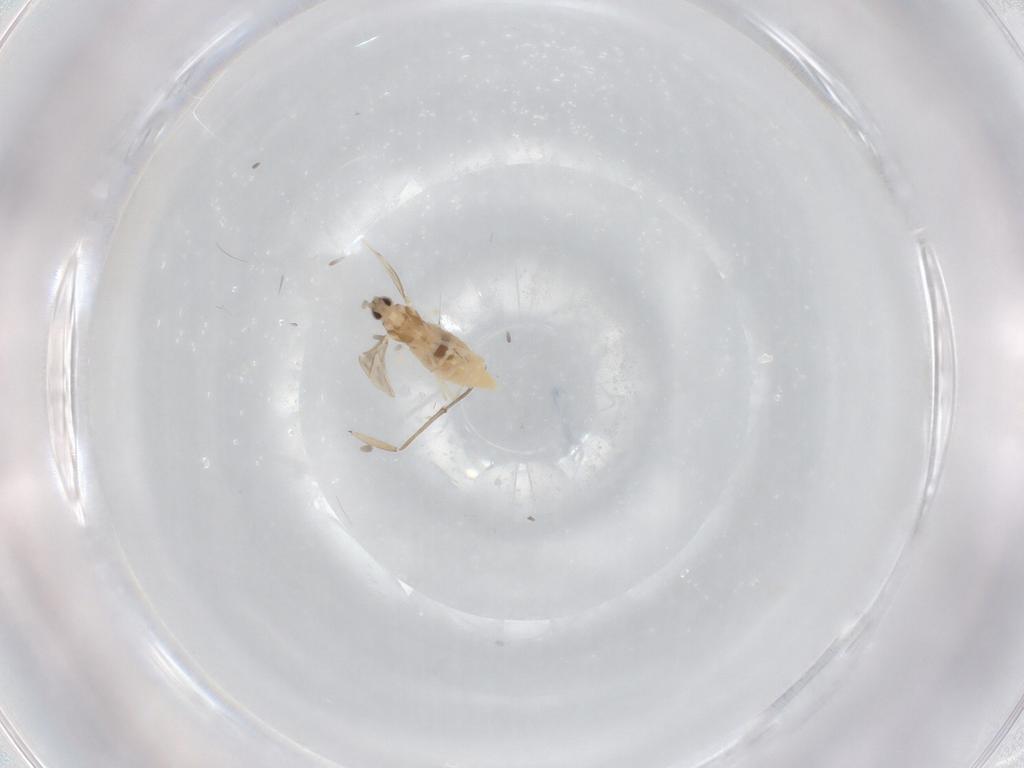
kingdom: Animalia
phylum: Arthropoda
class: Insecta
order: Diptera
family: Cecidomyiidae
